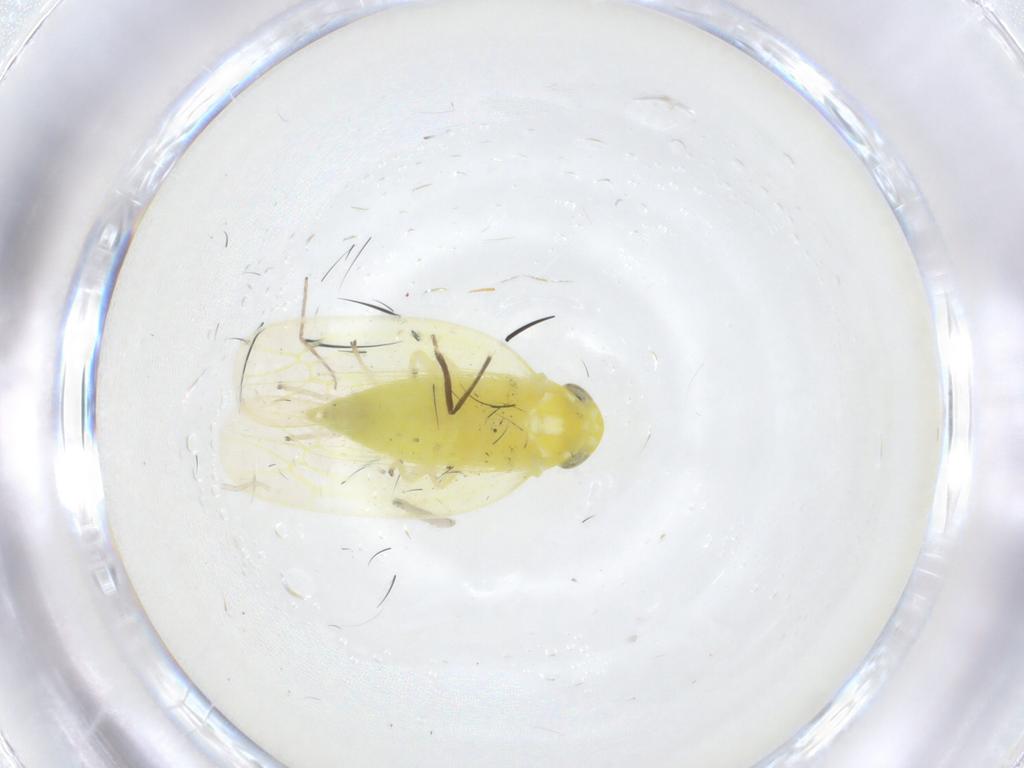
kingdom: Animalia
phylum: Arthropoda
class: Insecta
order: Hemiptera
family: Cicadellidae
